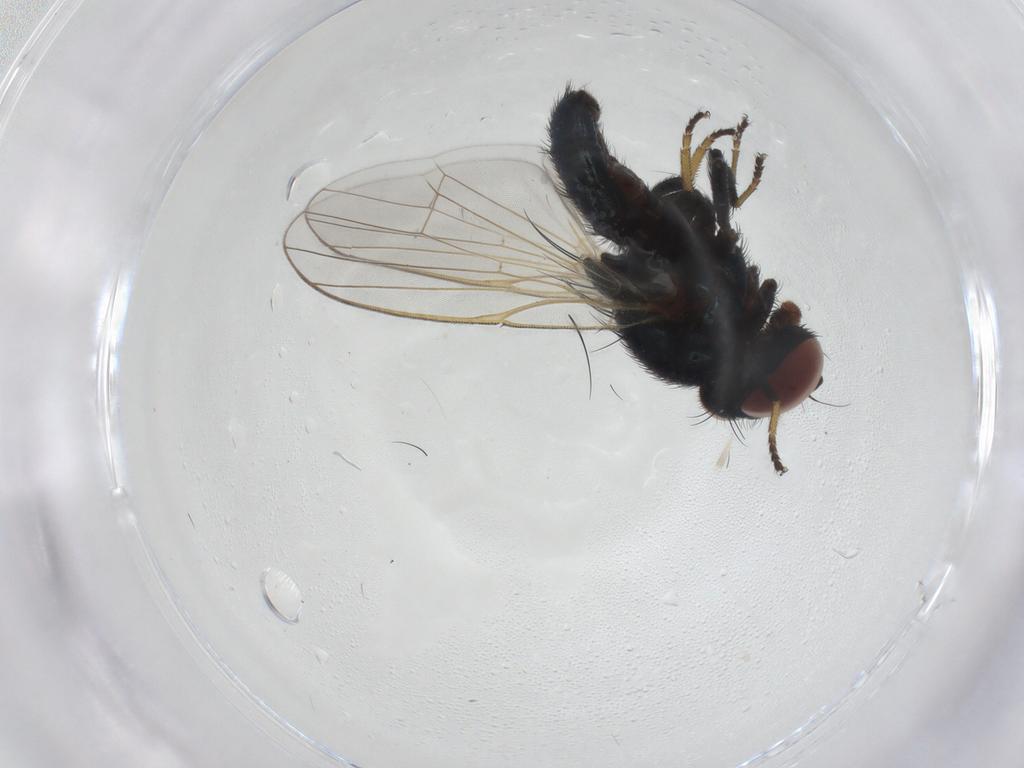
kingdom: Animalia
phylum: Arthropoda
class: Insecta
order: Diptera
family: Lonchaeidae
